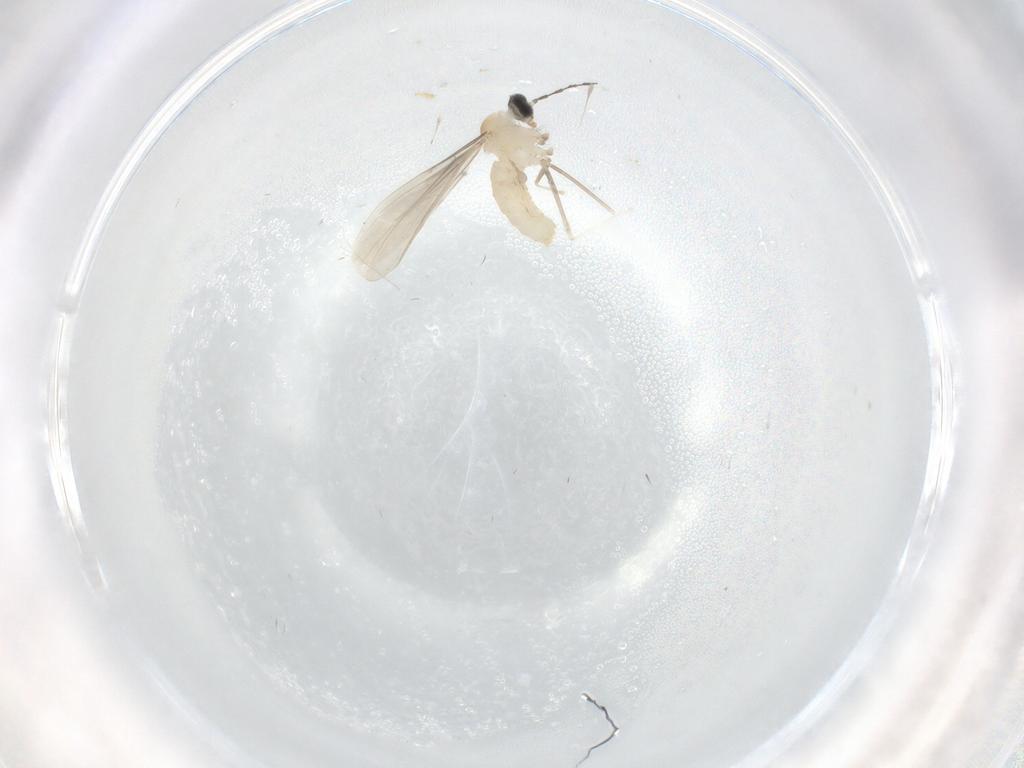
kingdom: Animalia
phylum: Arthropoda
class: Insecta
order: Diptera
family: Cecidomyiidae
